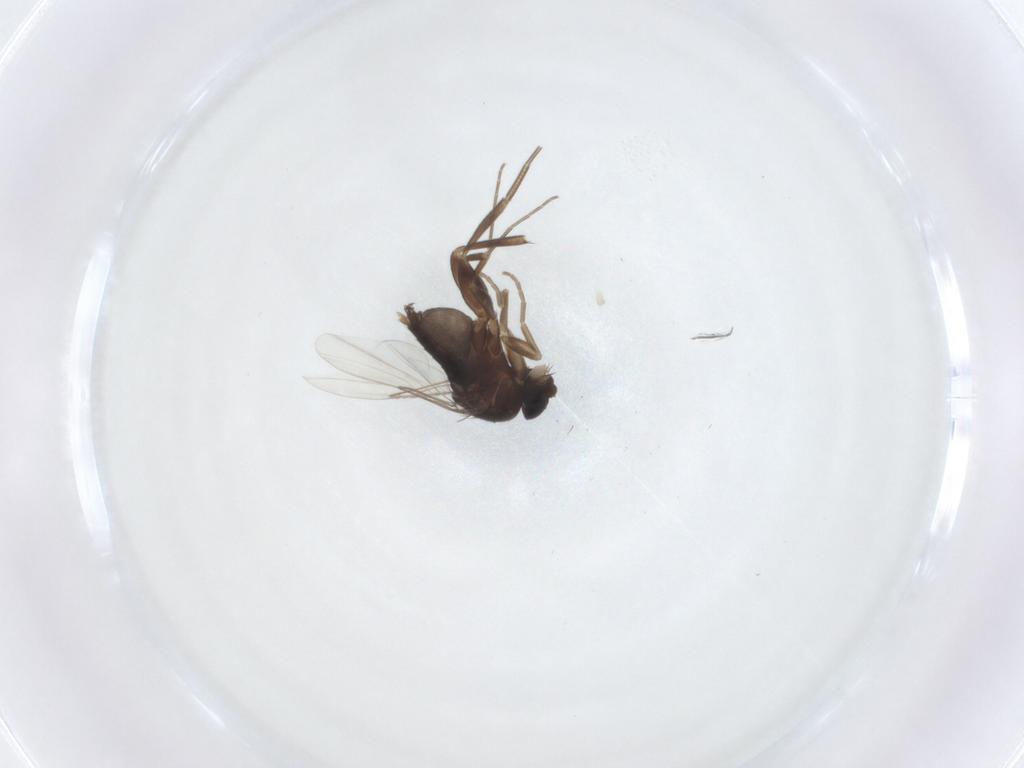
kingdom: Animalia
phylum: Arthropoda
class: Insecta
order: Diptera
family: Phoridae
